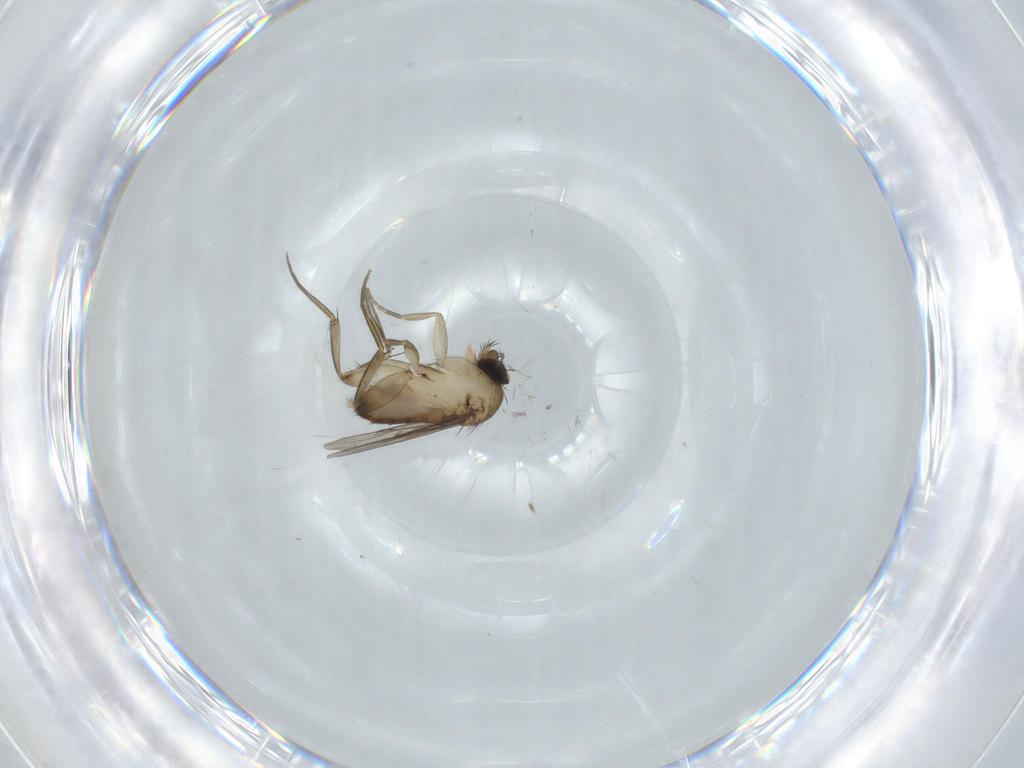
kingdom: Animalia
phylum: Arthropoda
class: Insecta
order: Diptera
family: Phoridae
